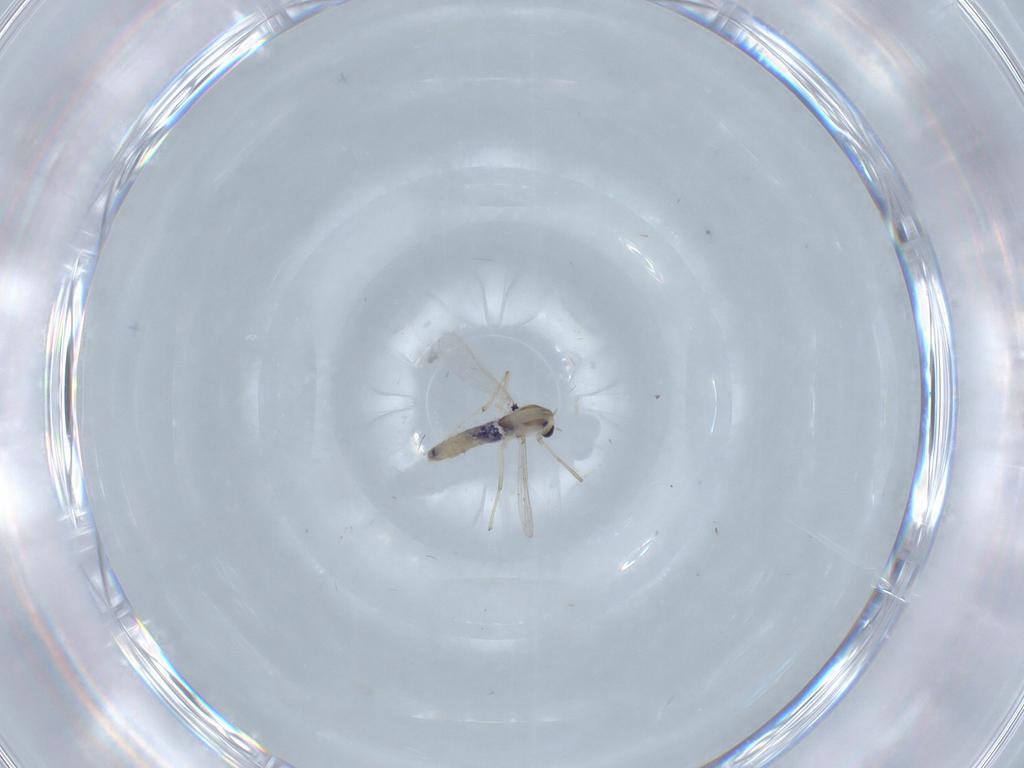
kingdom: Animalia
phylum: Arthropoda
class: Insecta
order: Diptera
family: Chironomidae
